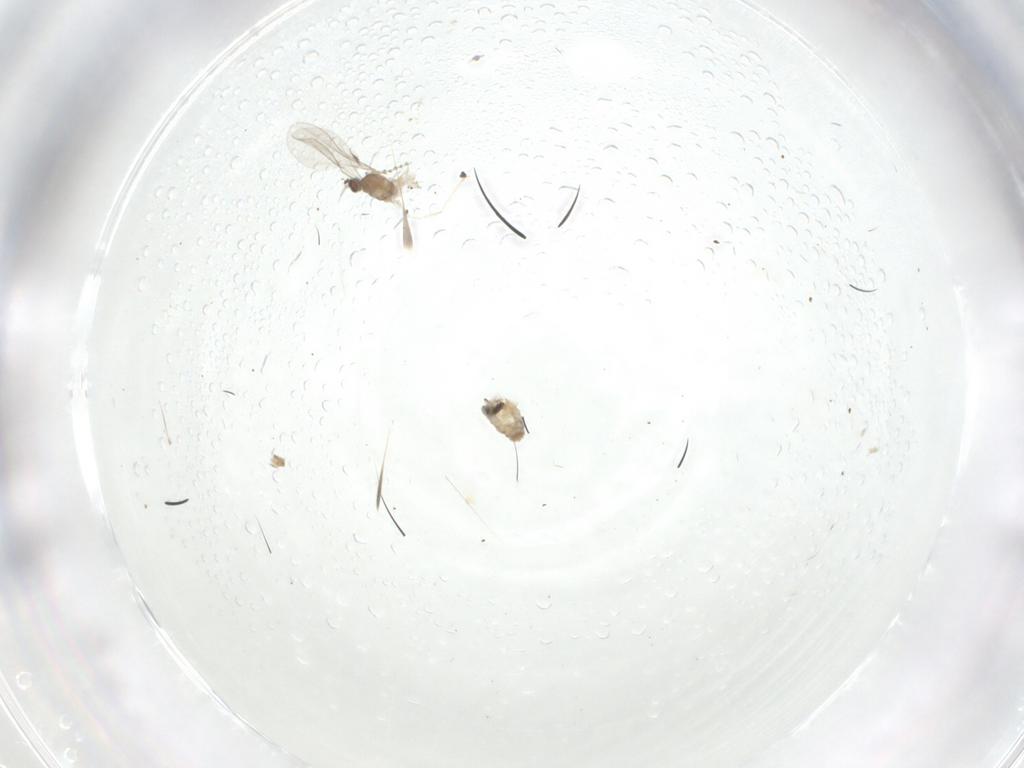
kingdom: Animalia
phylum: Arthropoda
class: Insecta
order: Diptera
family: Cecidomyiidae
